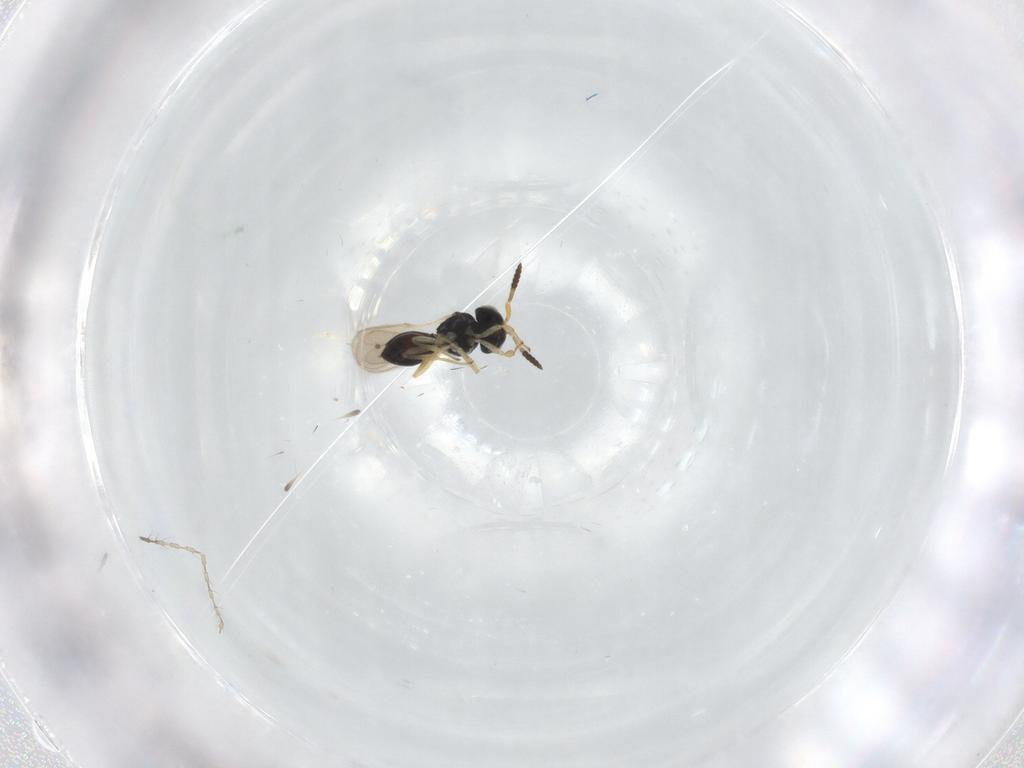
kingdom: Animalia
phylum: Arthropoda
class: Insecta
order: Hymenoptera
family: Scelionidae
